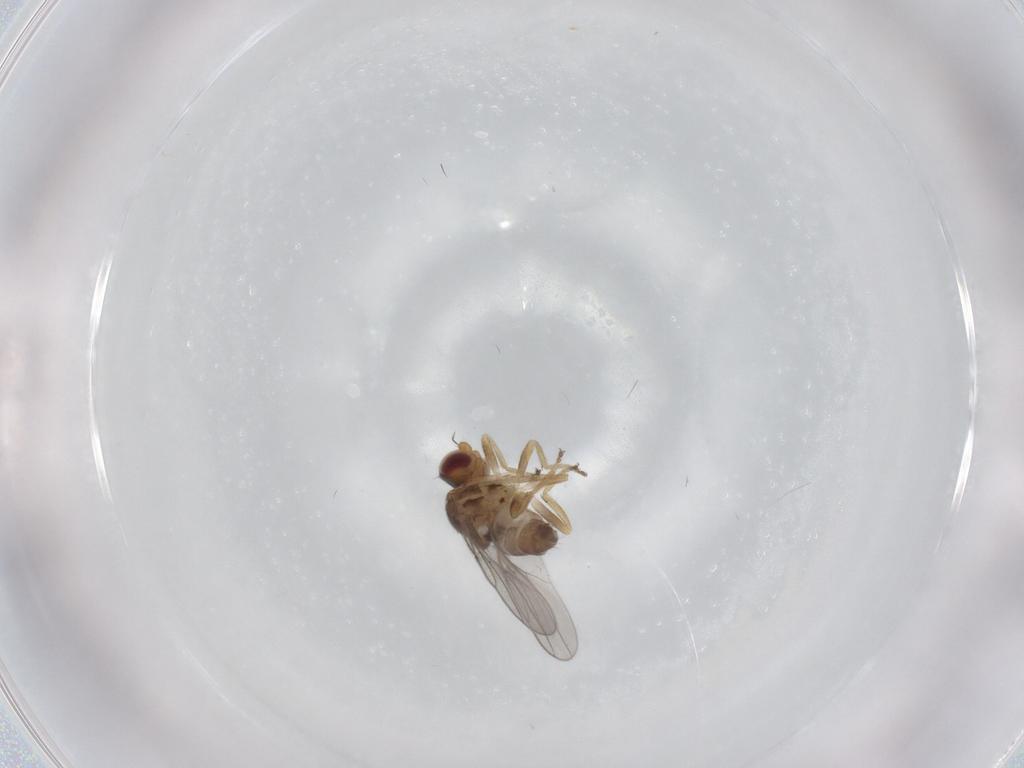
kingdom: Animalia
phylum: Arthropoda
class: Insecta
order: Diptera
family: Chloropidae
